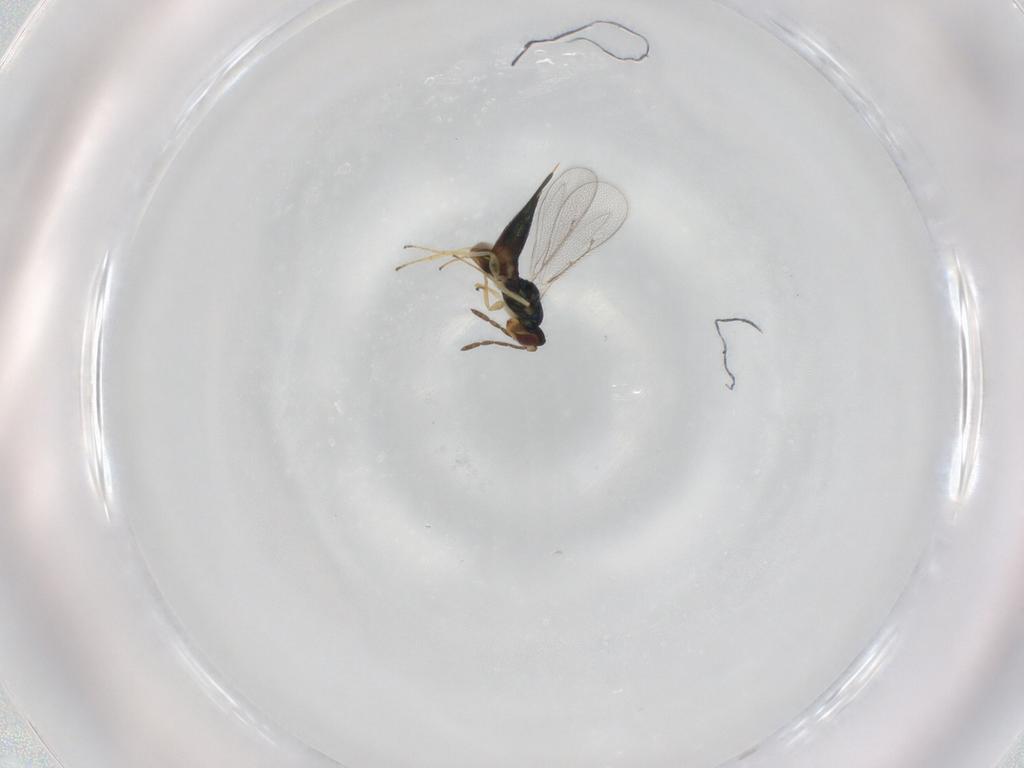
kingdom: Animalia
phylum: Arthropoda
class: Insecta
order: Hymenoptera
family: Eulophidae
